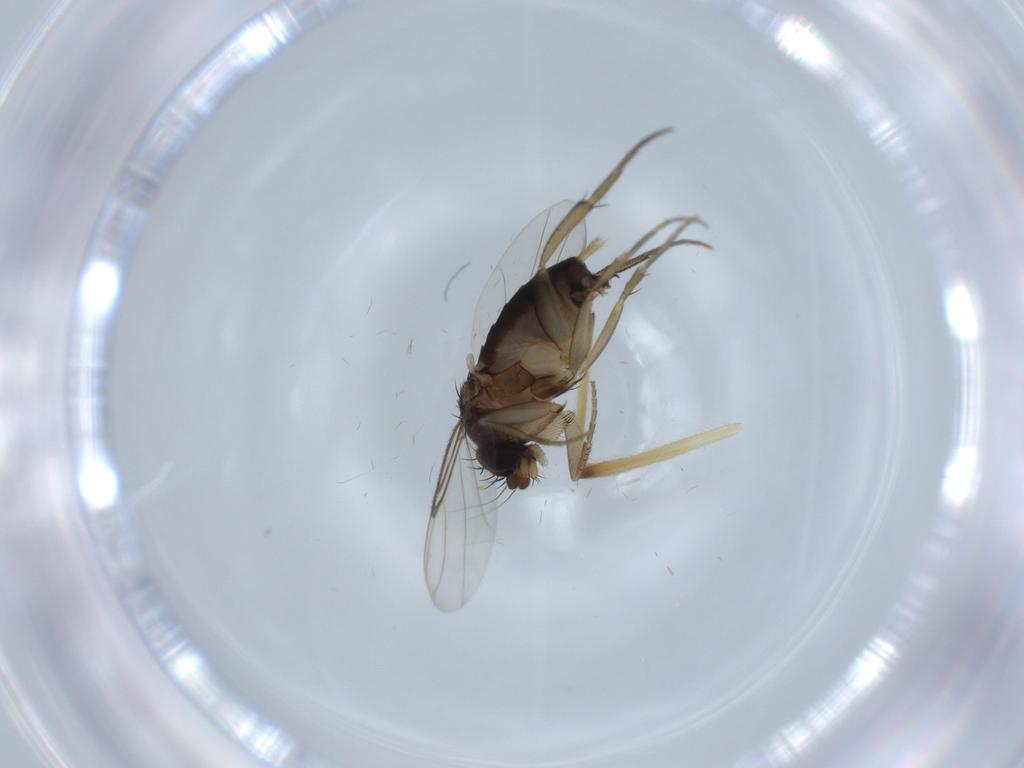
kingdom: Animalia
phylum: Arthropoda
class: Insecta
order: Diptera
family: Phoridae
